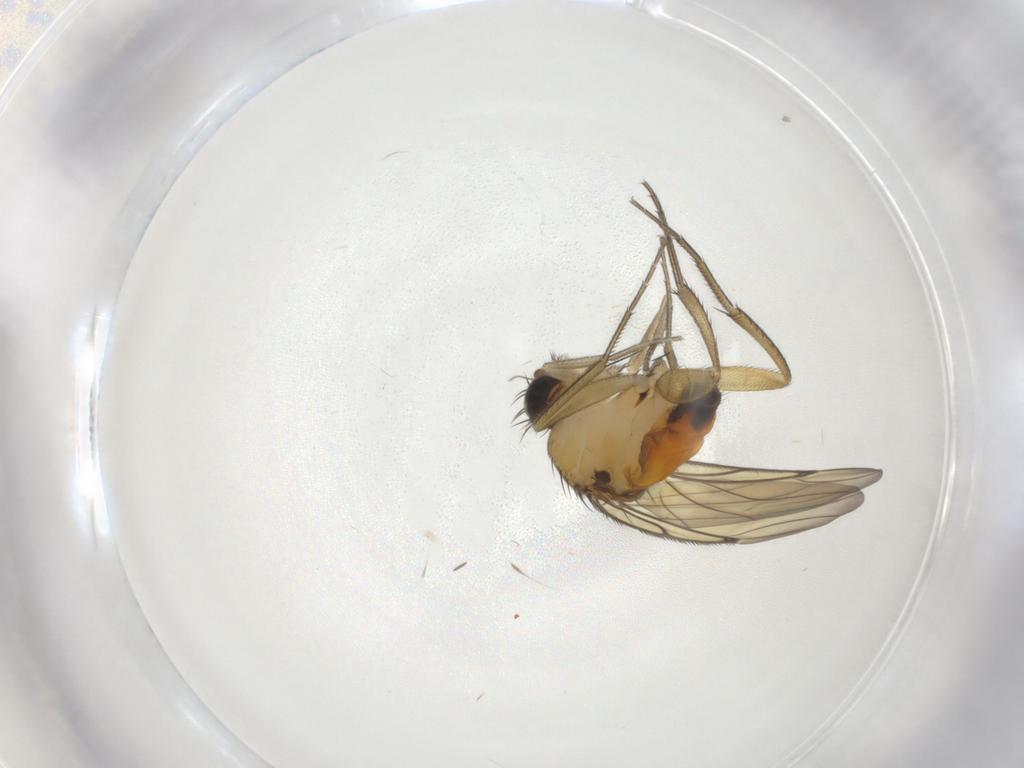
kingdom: Animalia
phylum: Arthropoda
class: Insecta
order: Diptera
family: Phoridae
